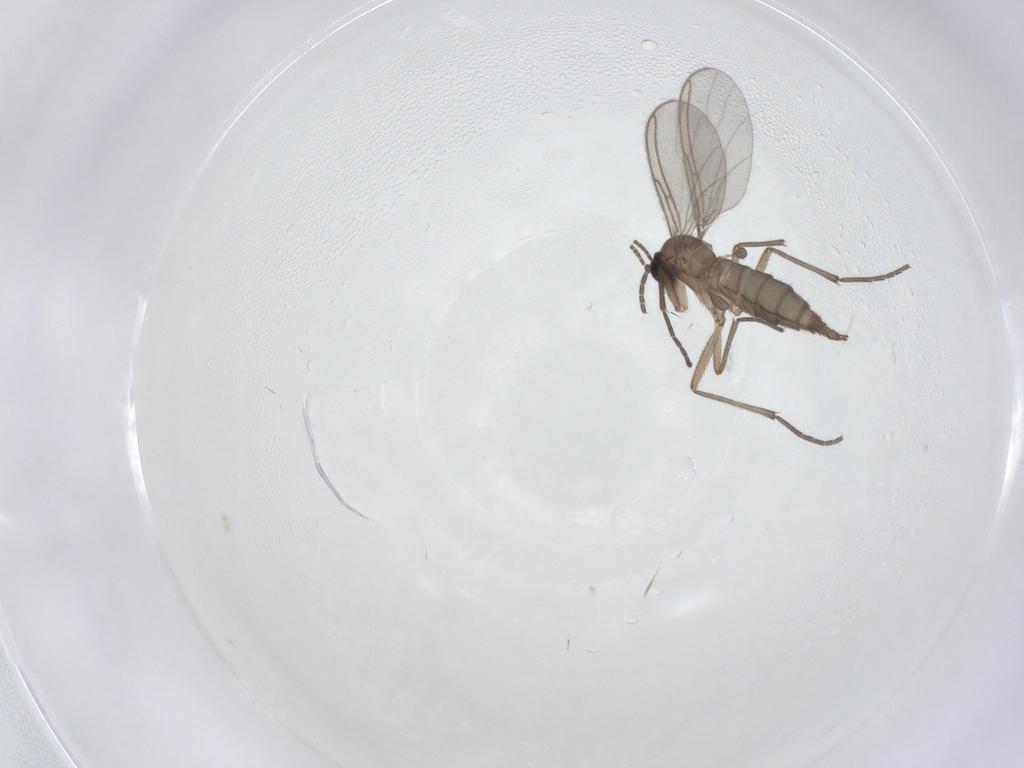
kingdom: Animalia
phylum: Arthropoda
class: Insecta
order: Diptera
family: Sciaridae
